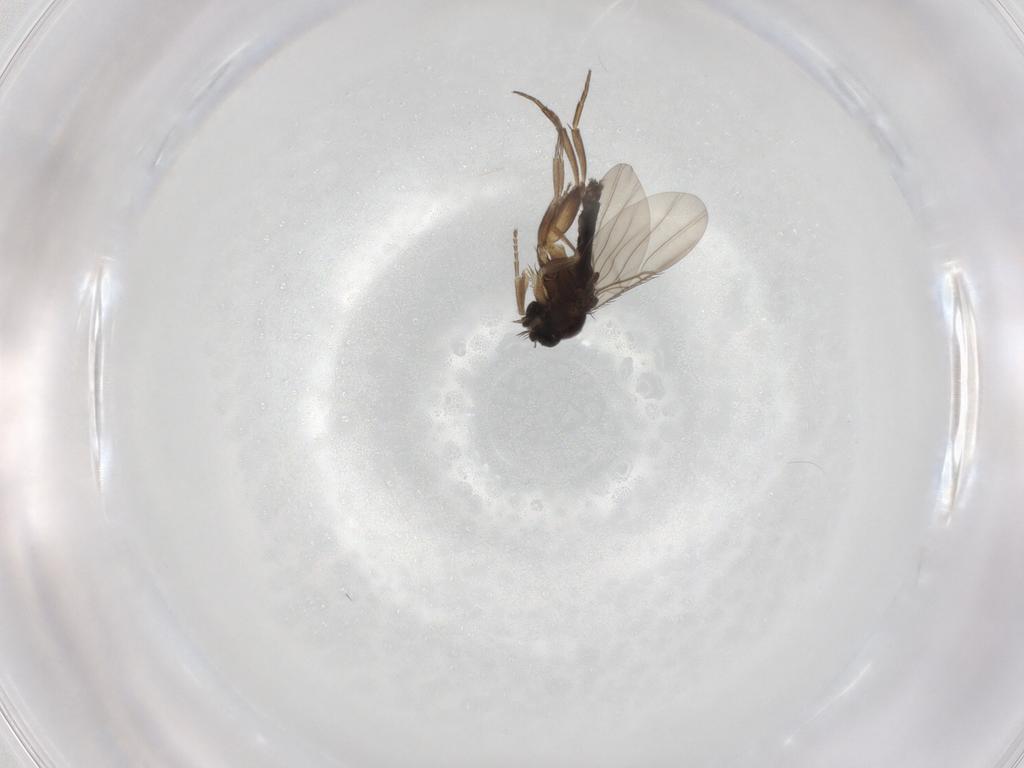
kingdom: Animalia
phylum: Arthropoda
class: Insecta
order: Diptera
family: Phoridae
